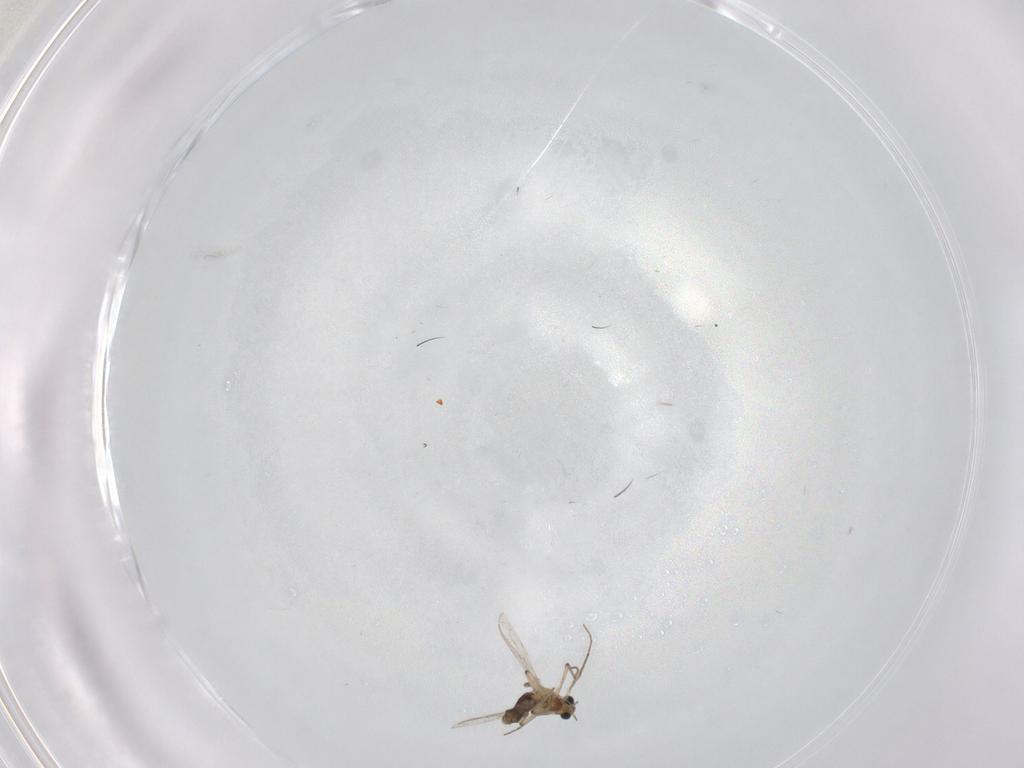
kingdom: Animalia
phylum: Arthropoda
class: Insecta
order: Diptera
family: Chironomidae
